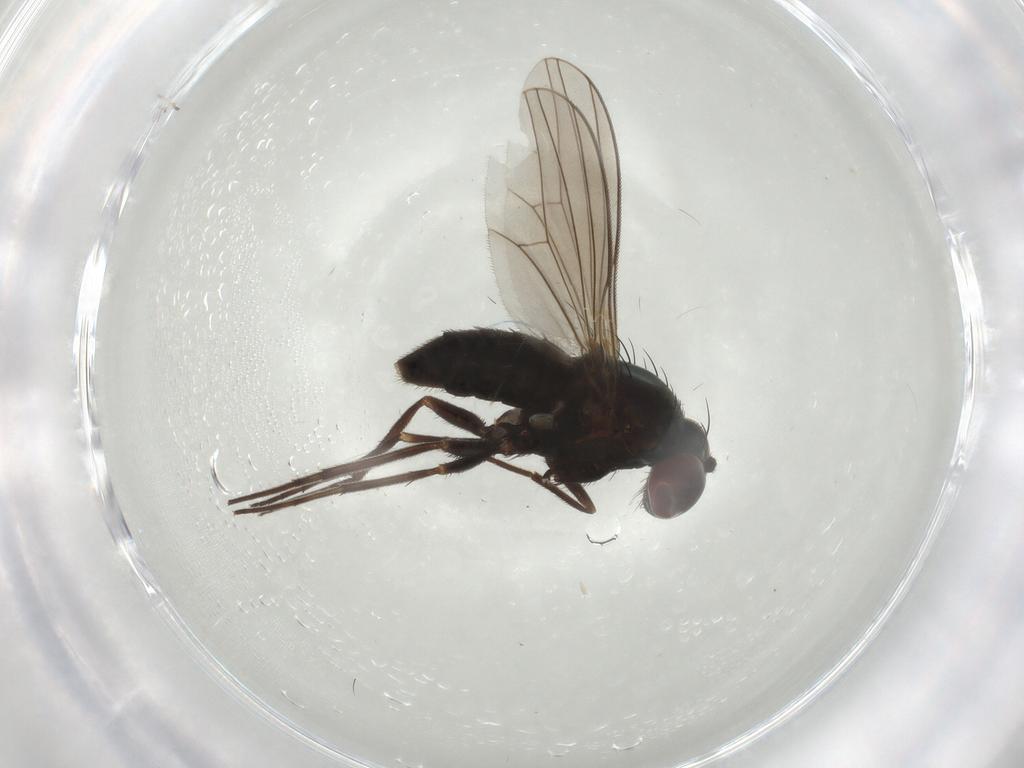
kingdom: Animalia
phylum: Arthropoda
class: Insecta
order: Diptera
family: Dolichopodidae
